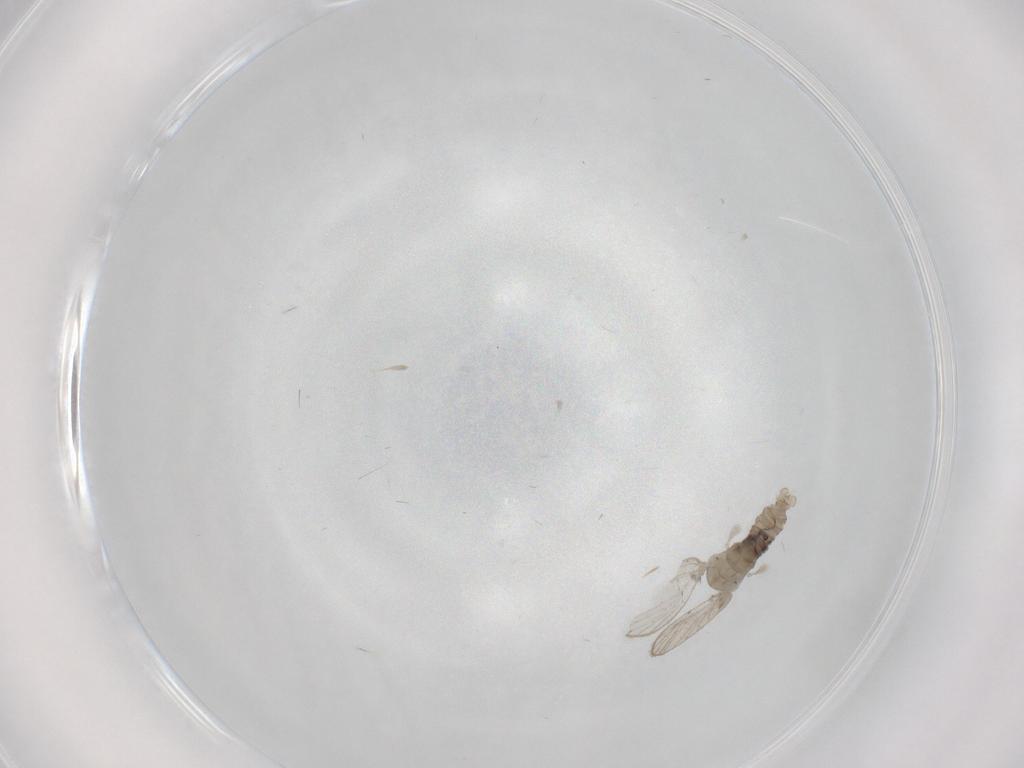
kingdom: Animalia
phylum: Arthropoda
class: Insecta
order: Diptera
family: Psychodidae
